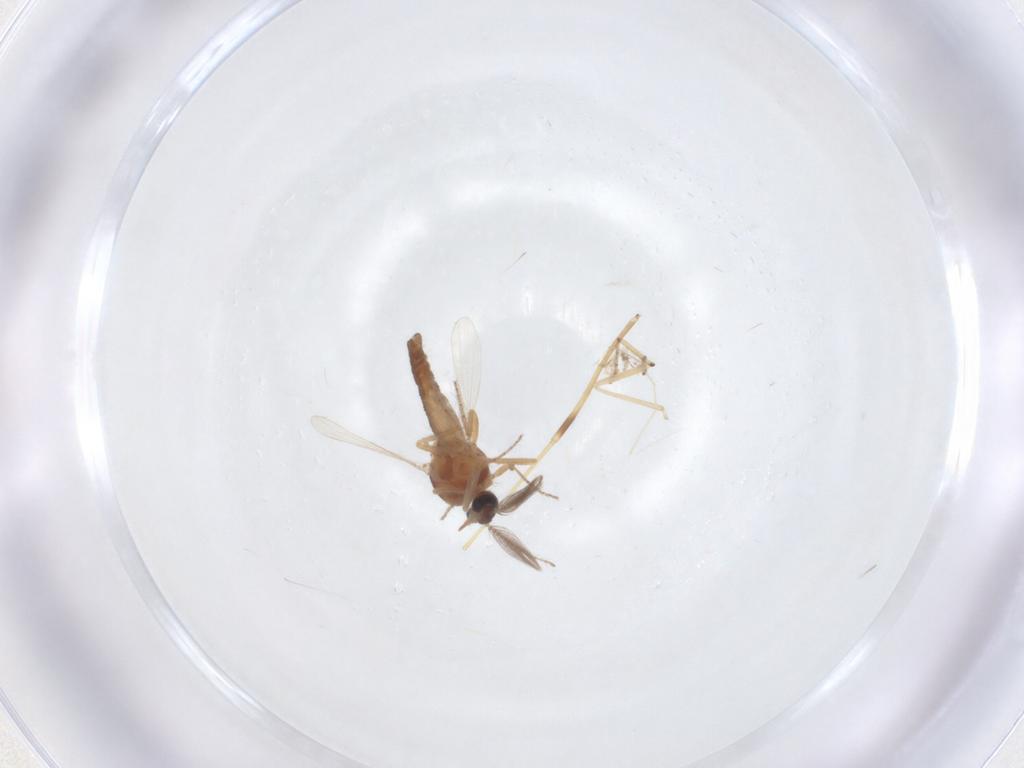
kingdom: Animalia
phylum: Arthropoda
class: Insecta
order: Diptera
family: Ceratopogonidae
